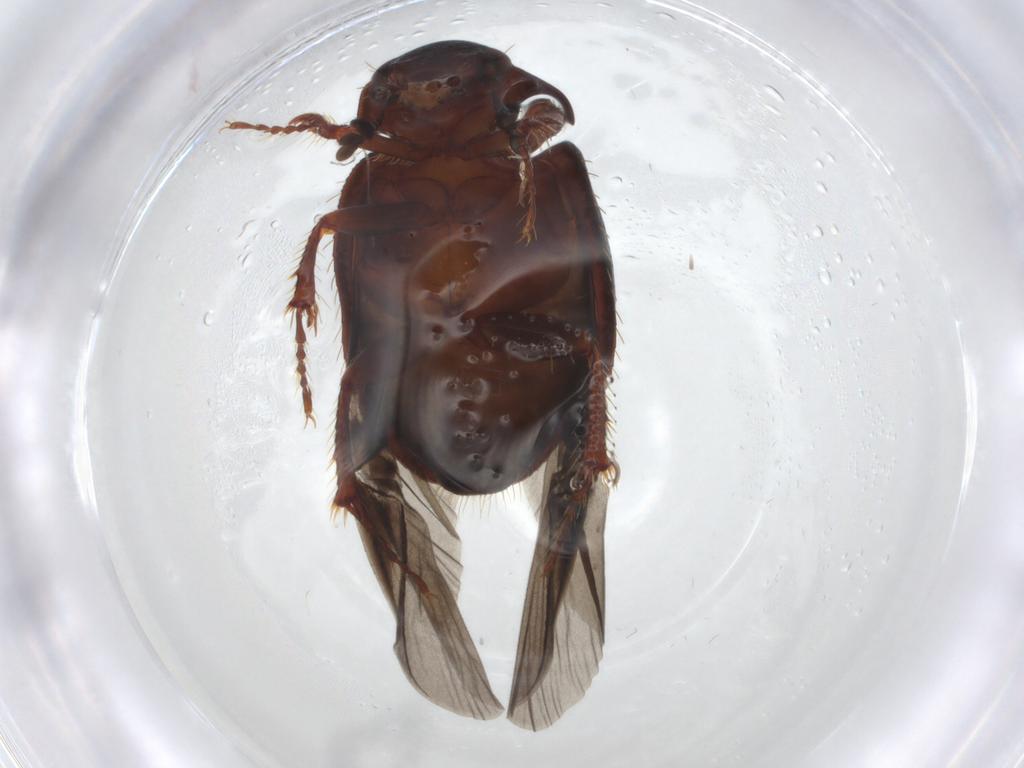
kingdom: Animalia
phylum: Arthropoda
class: Insecta
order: Coleoptera
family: Hybosoridae
